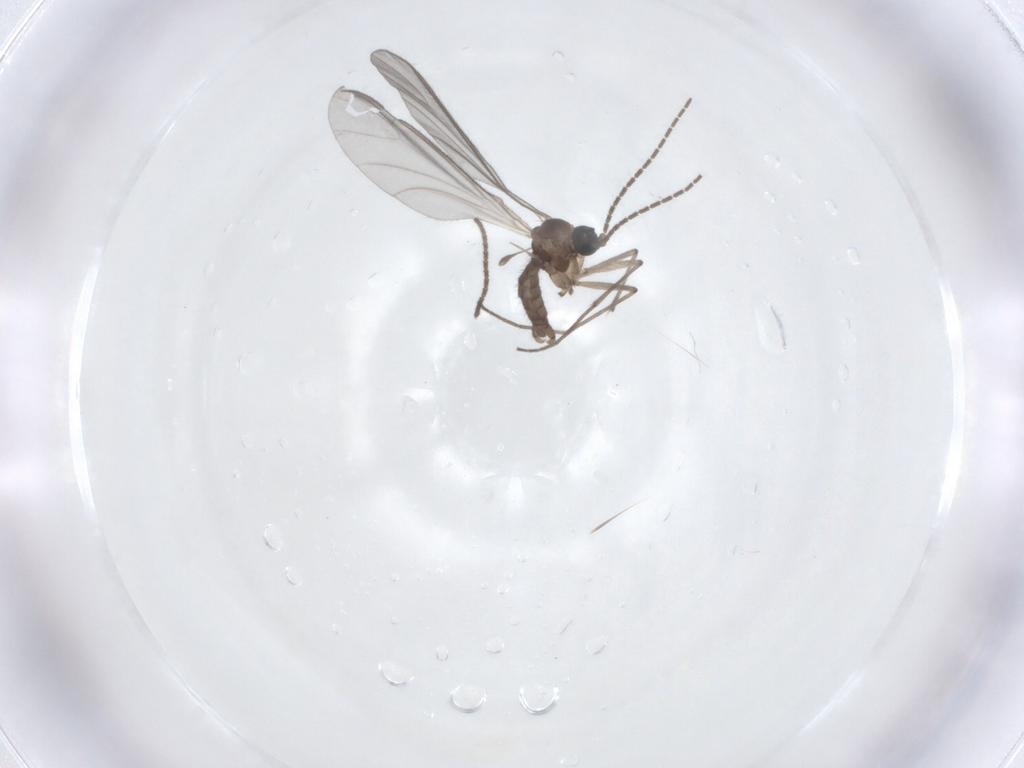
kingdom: Animalia
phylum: Arthropoda
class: Insecta
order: Diptera
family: Sciaridae
